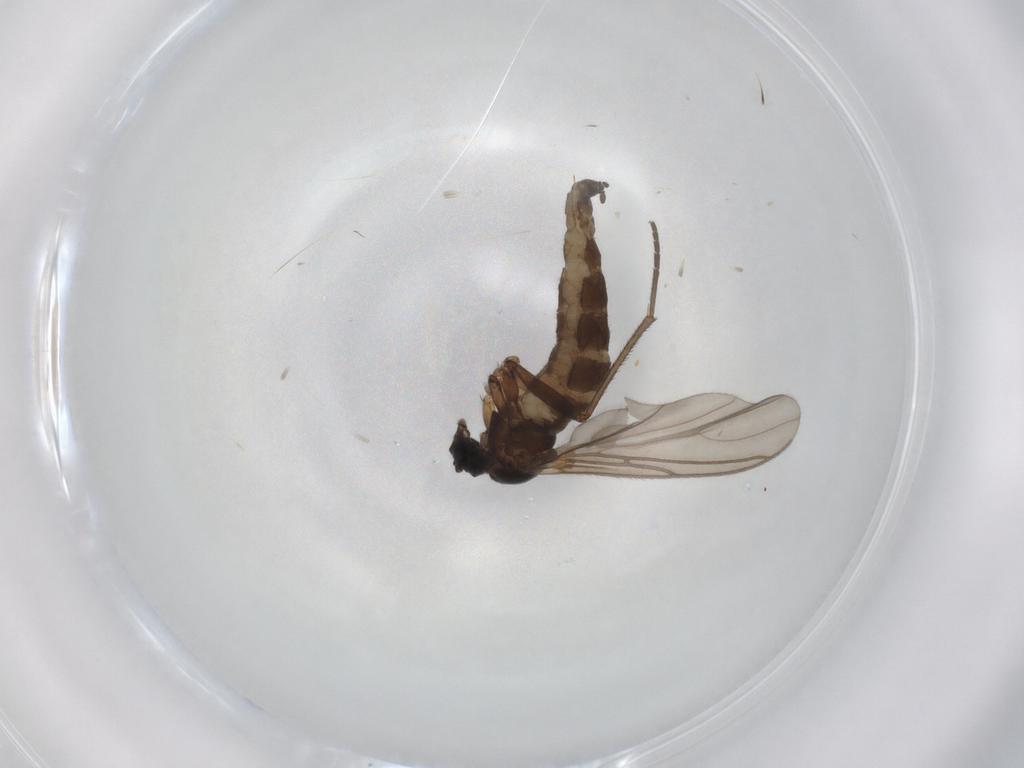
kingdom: Animalia
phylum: Arthropoda
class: Insecta
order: Diptera
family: Sciaridae
